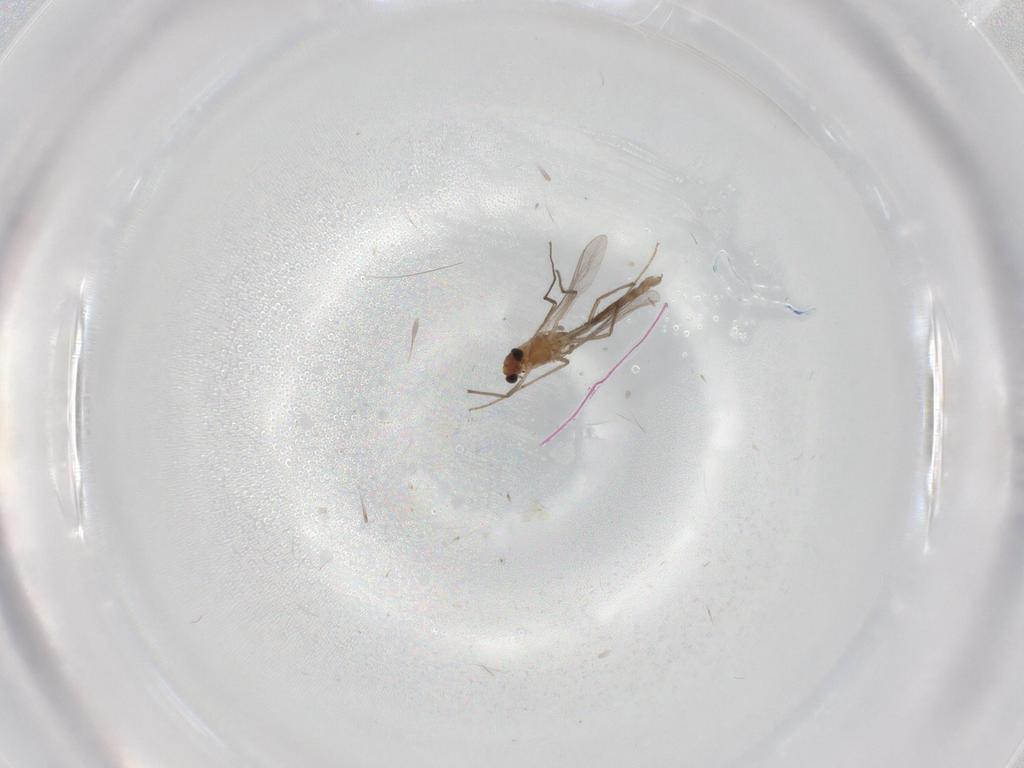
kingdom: Animalia
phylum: Arthropoda
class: Insecta
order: Diptera
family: Chironomidae
